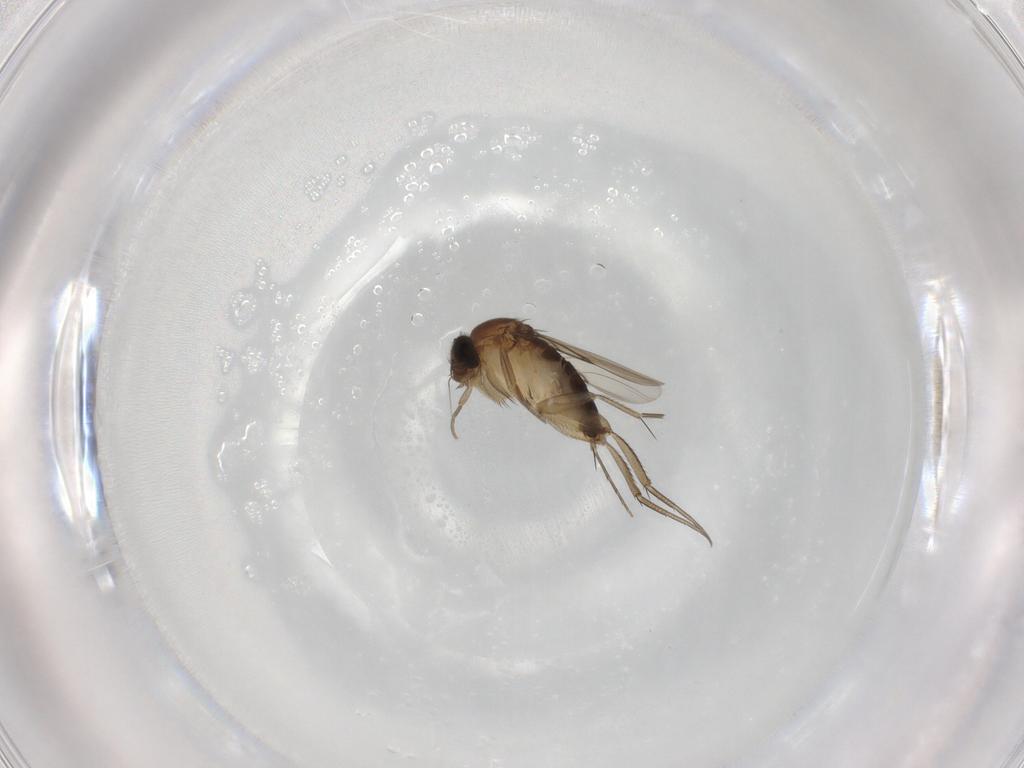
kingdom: Animalia
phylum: Arthropoda
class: Insecta
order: Diptera
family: Phoridae
